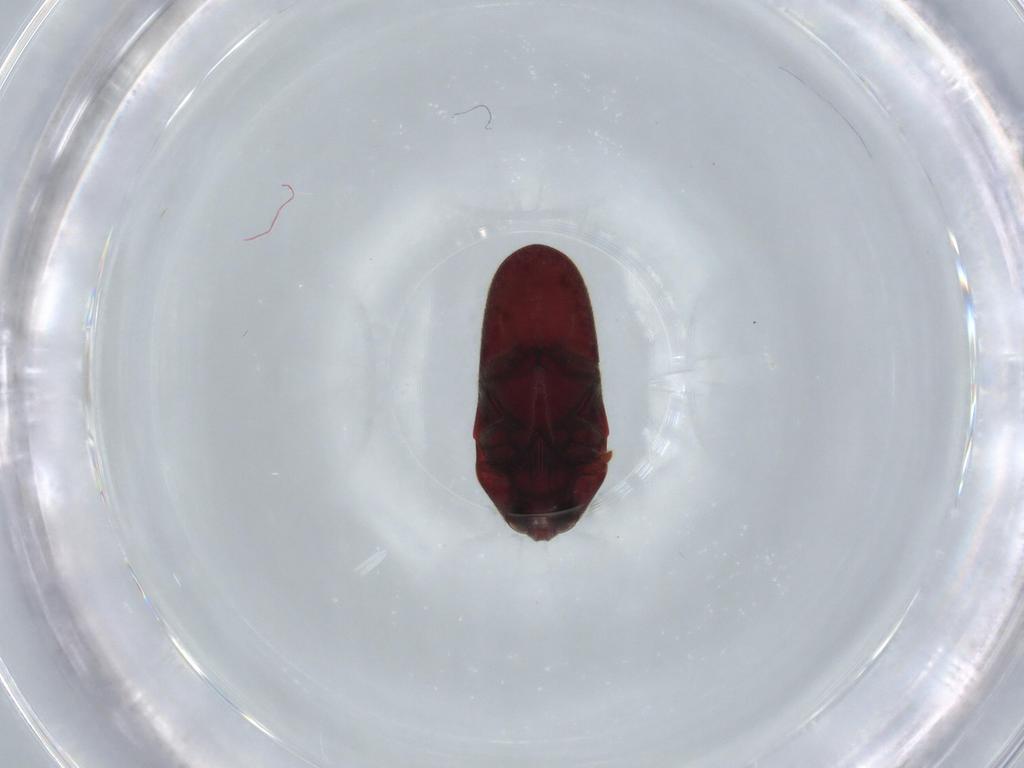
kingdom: Animalia
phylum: Arthropoda
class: Insecta
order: Coleoptera
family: Throscidae
